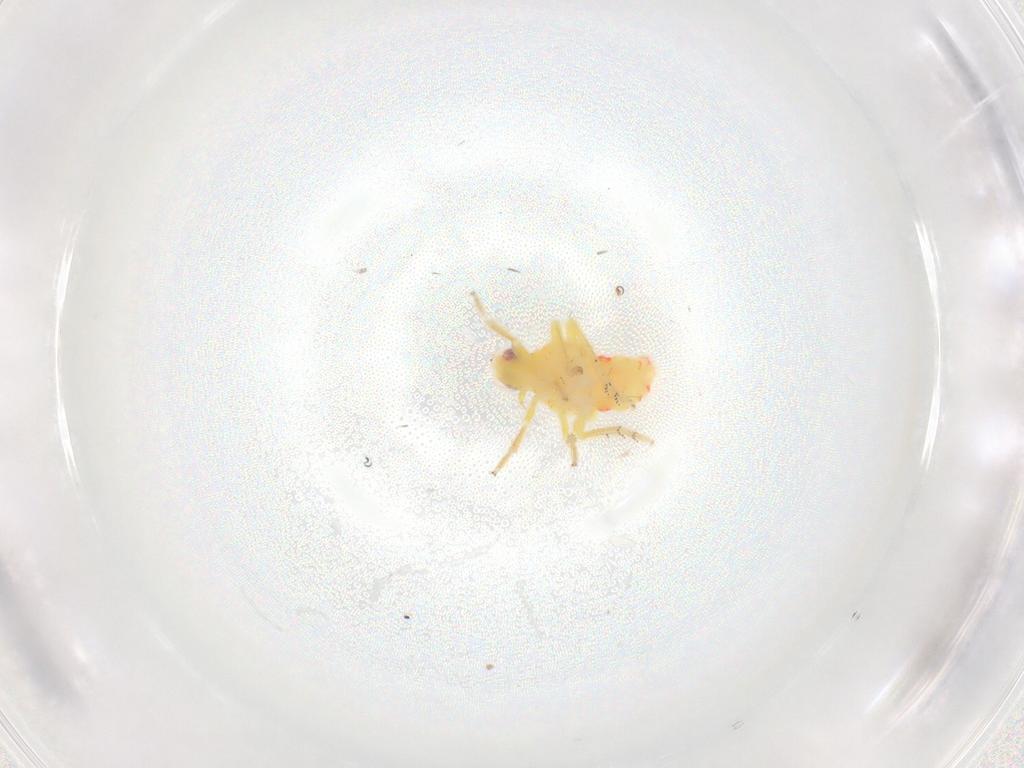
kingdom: Animalia
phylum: Arthropoda
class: Insecta
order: Hemiptera
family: Tropiduchidae
